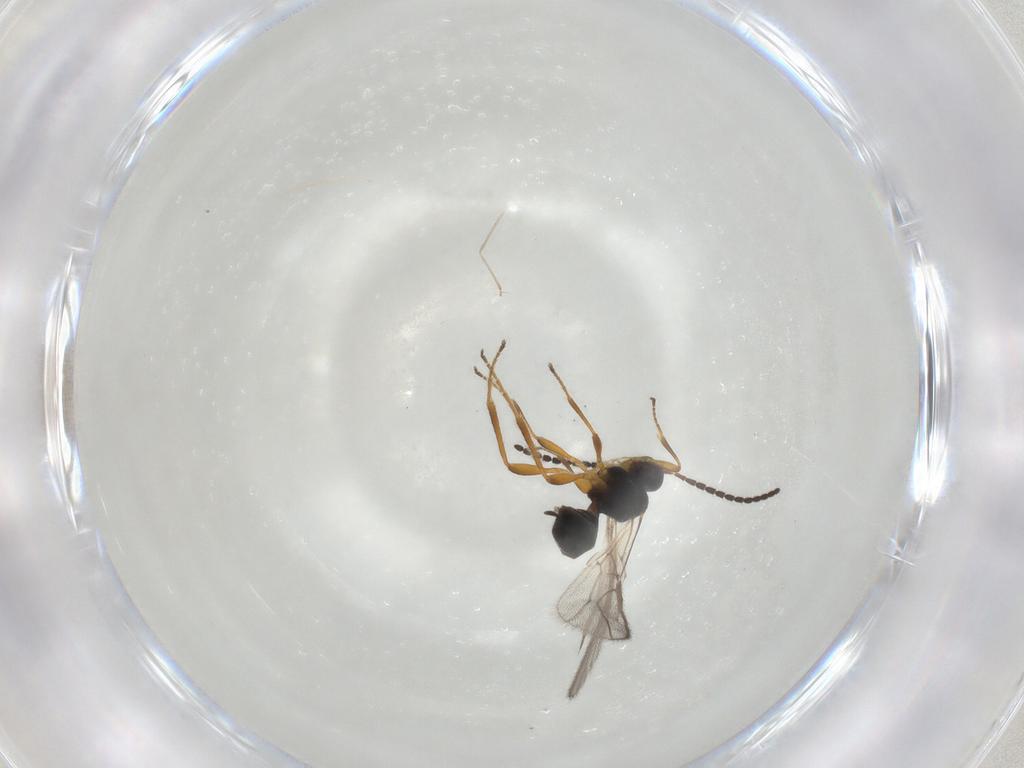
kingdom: Animalia
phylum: Arthropoda
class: Insecta
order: Hymenoptera
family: Braconidae
